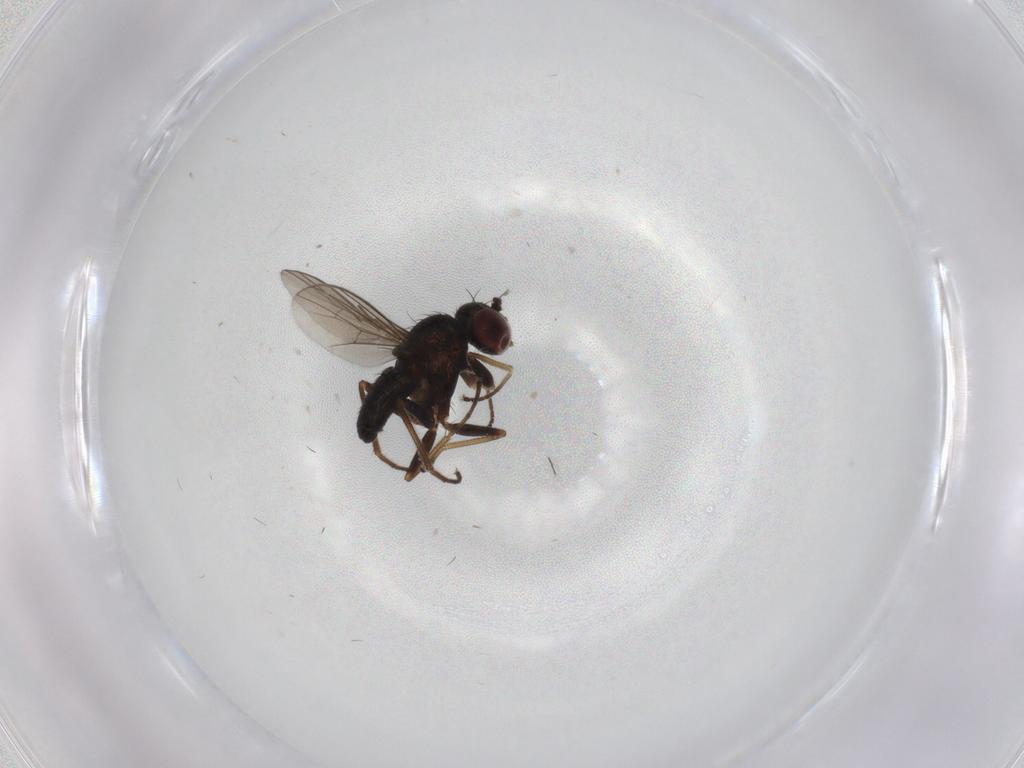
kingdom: Animalia
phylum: Arthropoda
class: Insecta
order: Diptera
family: Dolichopodidae
